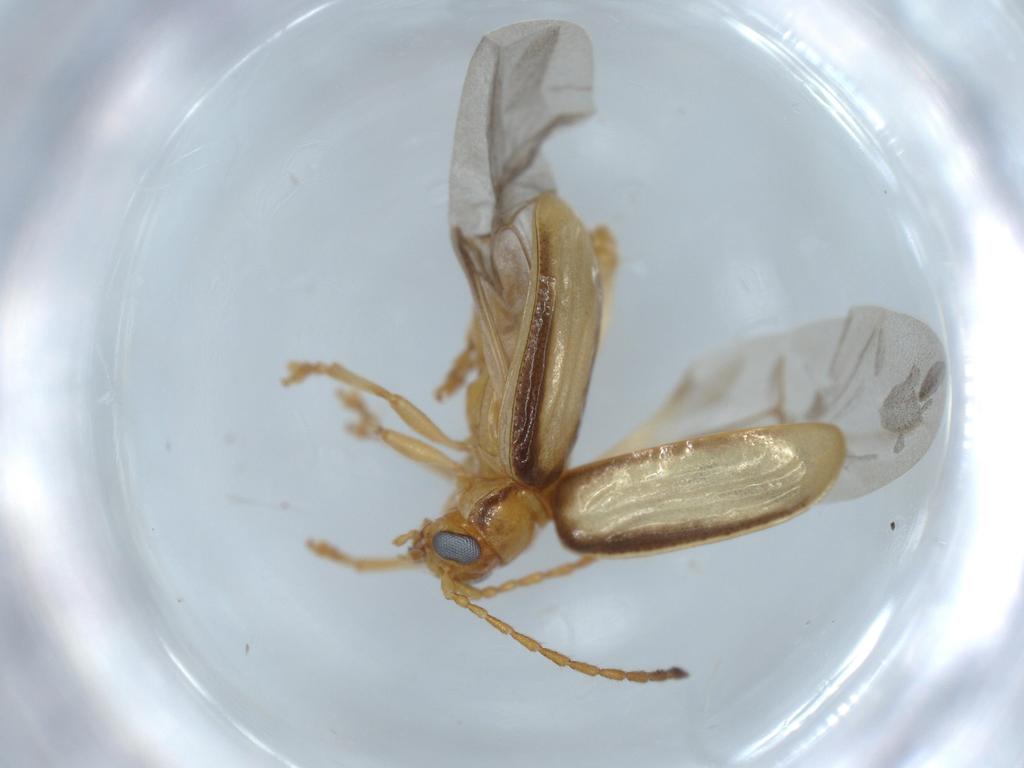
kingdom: Animalia
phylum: Arthropoda
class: Insecta
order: Coleoptera
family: Chrysomelidae
